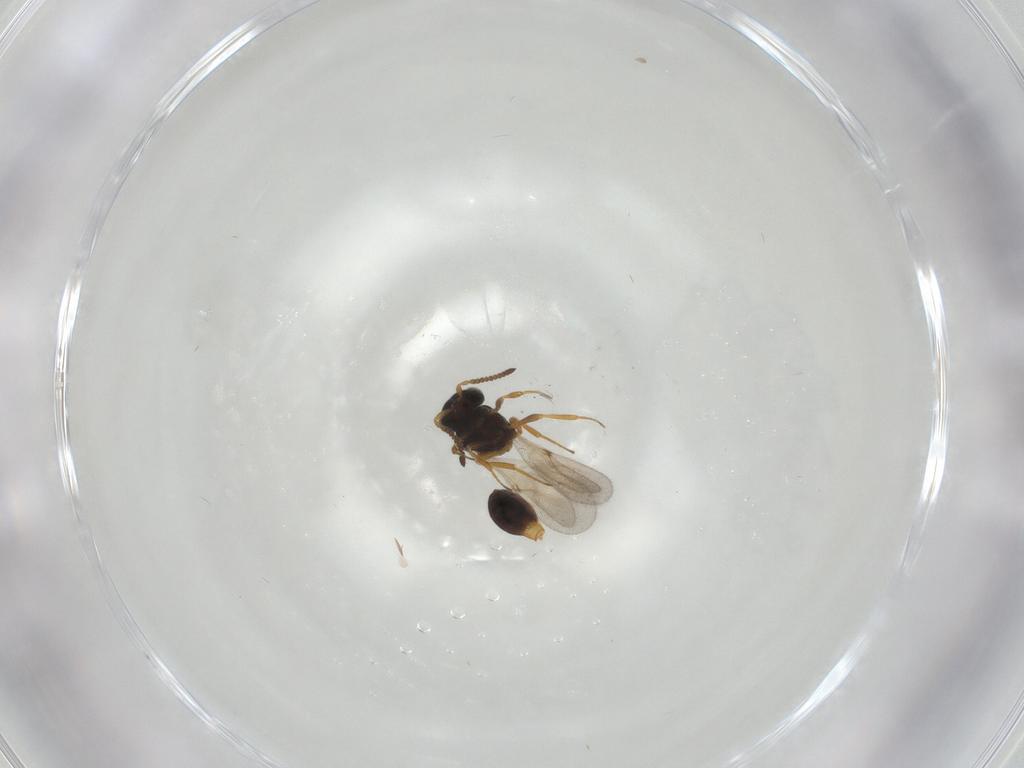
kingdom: Animalia
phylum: Arthropoda
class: Insecta
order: Hymenoptera
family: Scelionidae
